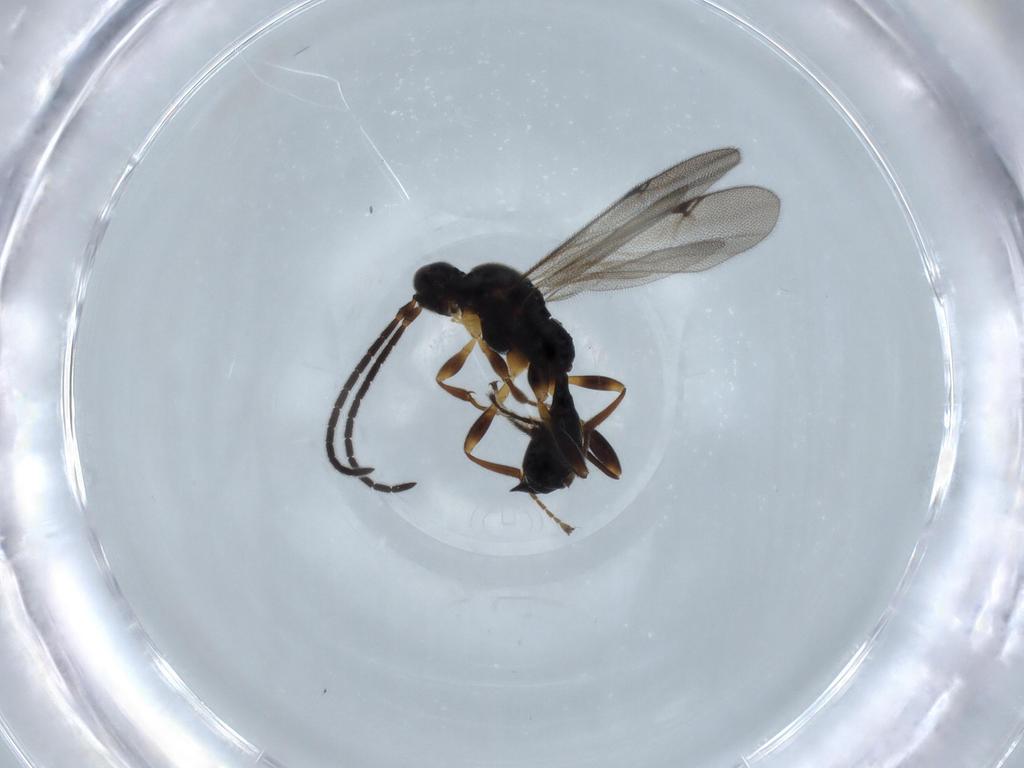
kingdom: Animalia
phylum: Arthropoda
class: Insecta
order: Hymenoptera
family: Proctotrupidae
